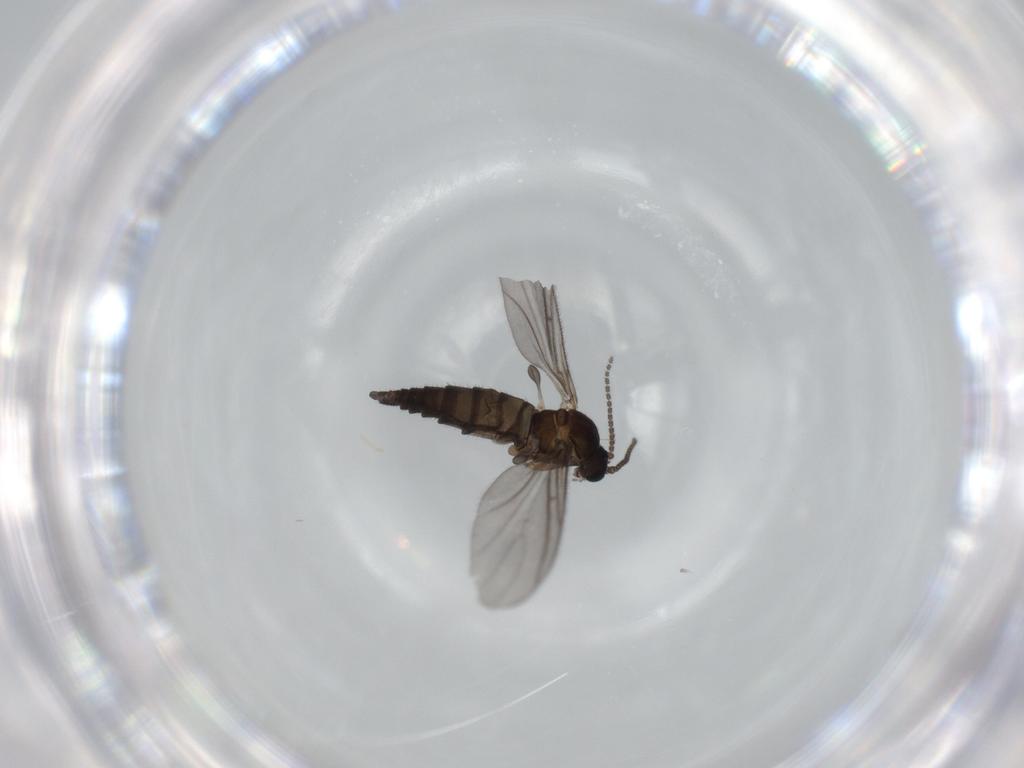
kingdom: Animalia
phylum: Arthropoda
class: Insecta
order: Diptera
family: Sciaridae
